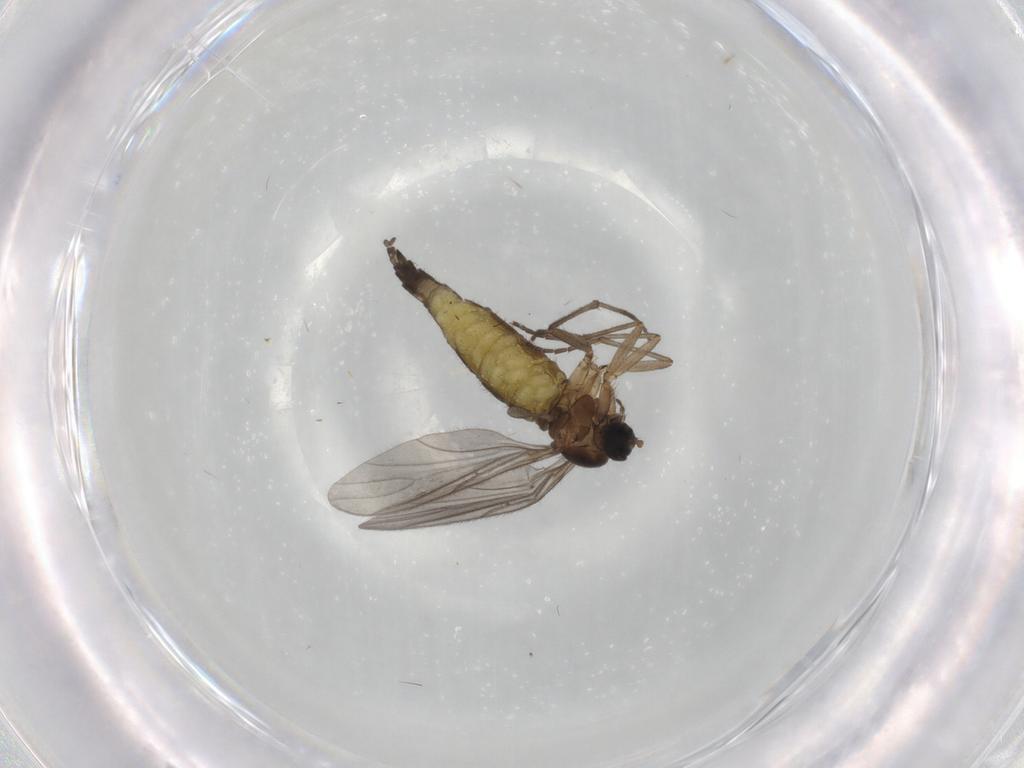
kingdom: Animalia
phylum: Arthropoda
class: Insecta
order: Diptera
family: Sciaridae
